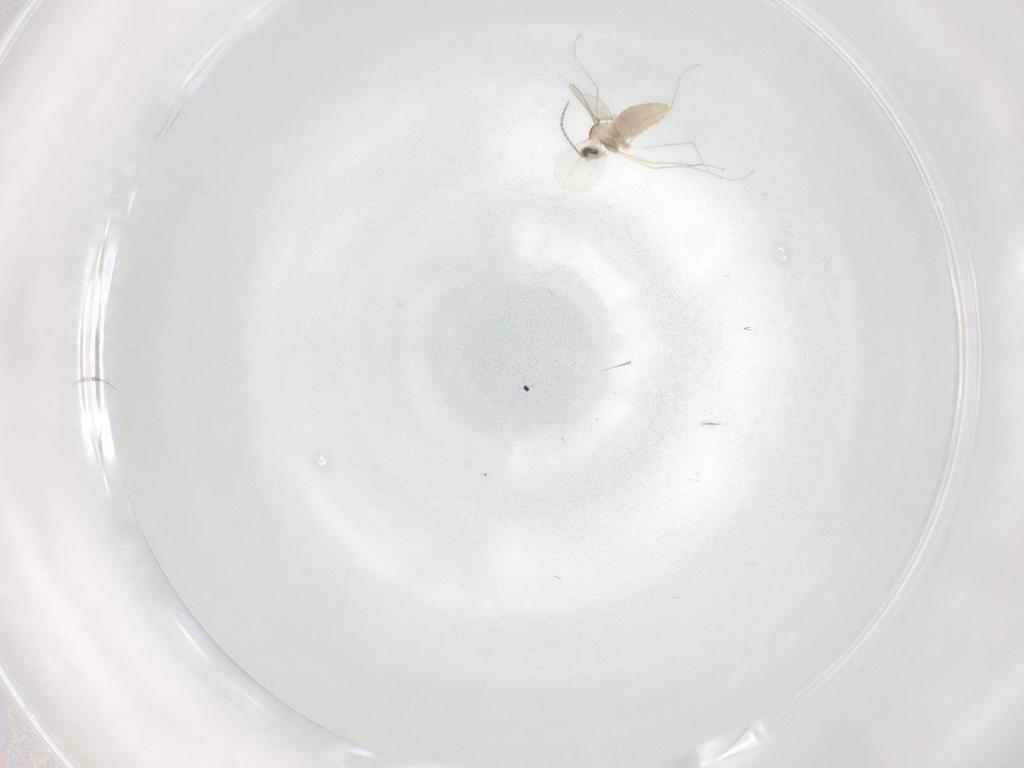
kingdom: Animalia
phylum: Arthropoda
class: Insecta
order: Diptera
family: Cecidomyiidae
